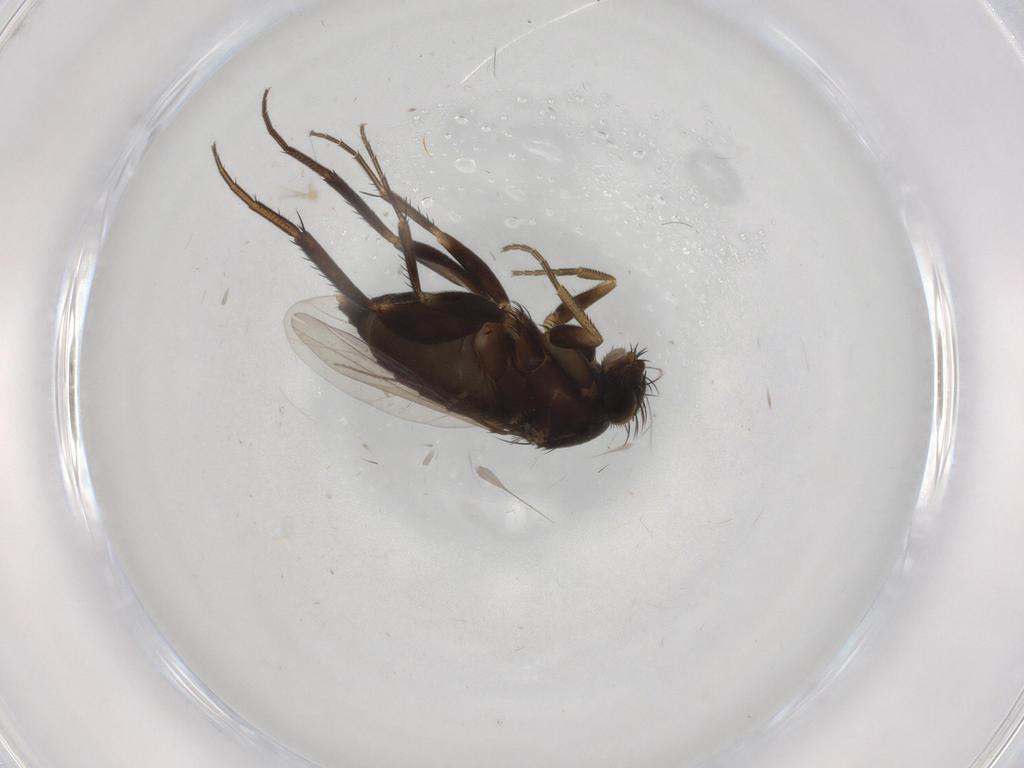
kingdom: Animalia
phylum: Arthropoda
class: Insecta
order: Diptera
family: Phoridae
